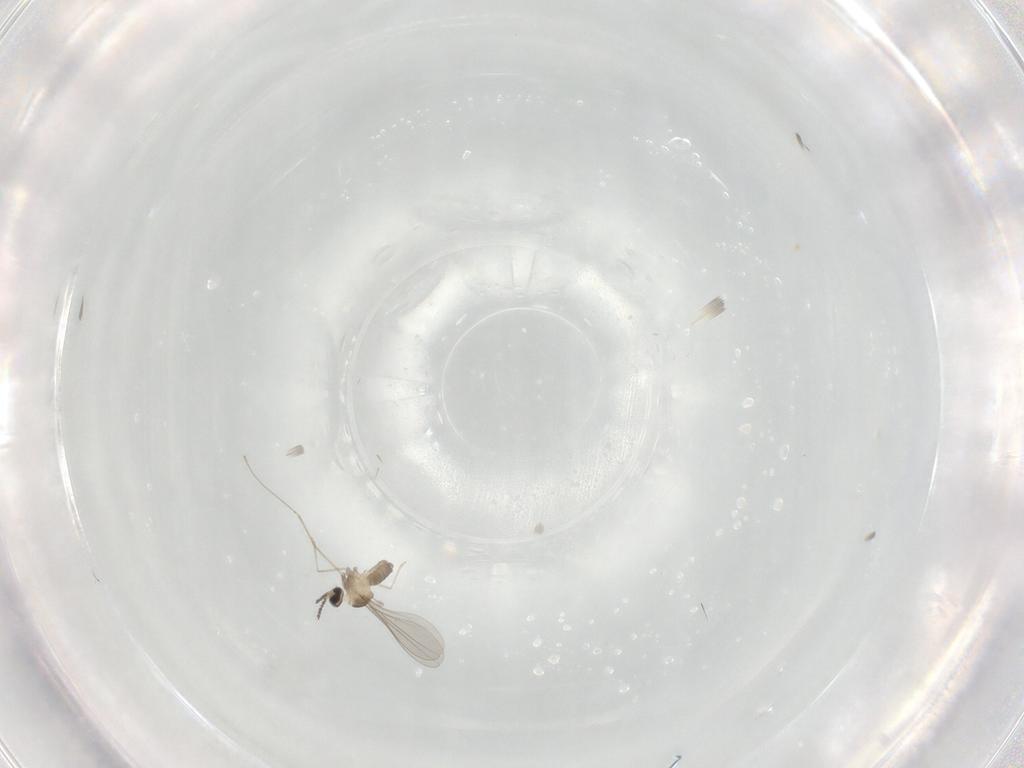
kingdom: Animalia
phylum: Arthropoda
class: Insecta
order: Diptera
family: Cecidomyiidae
